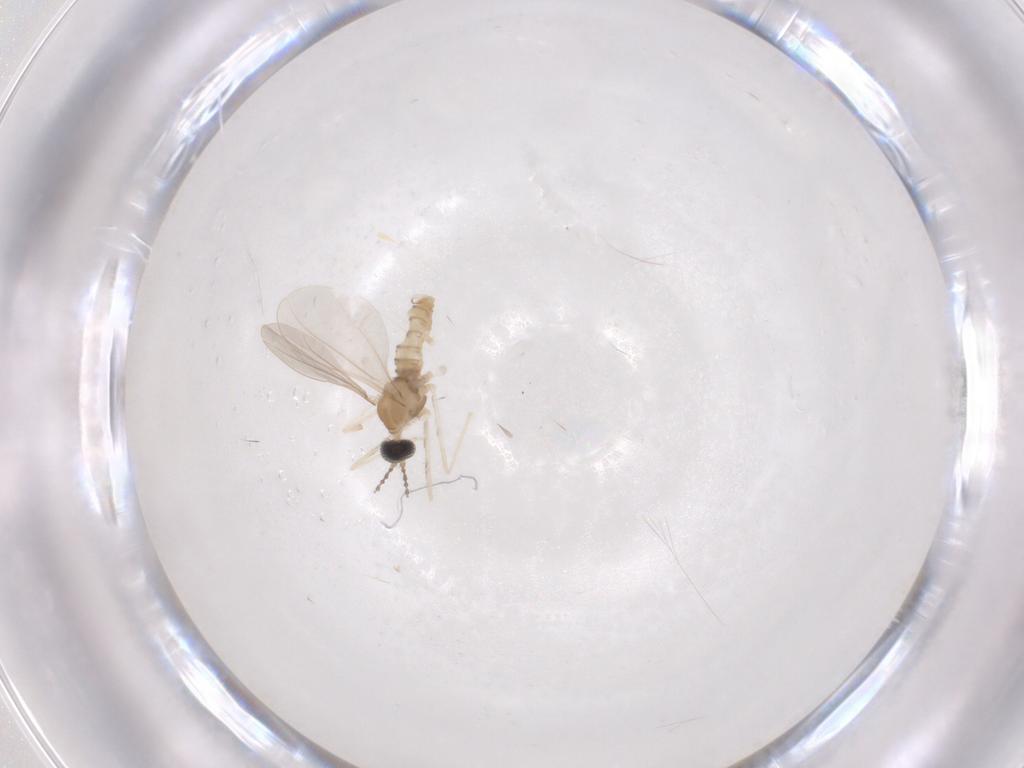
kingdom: Animalia
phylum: Arthropoda
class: Insecta
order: Diptera
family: Cecidomyiidae
